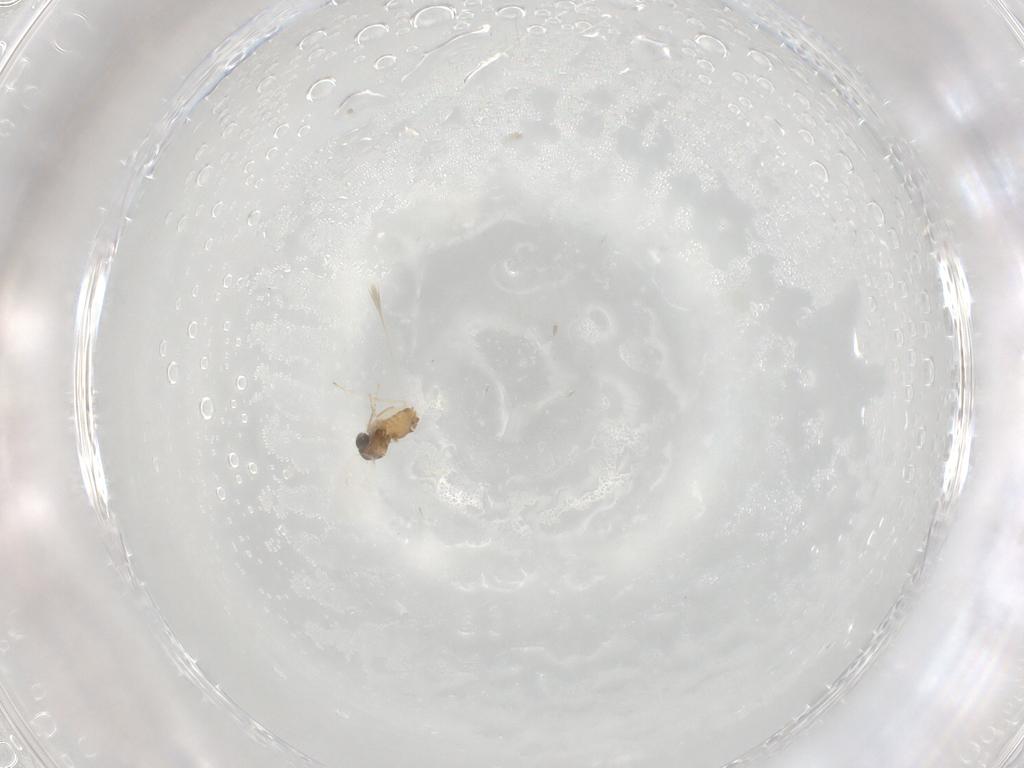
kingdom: Animalia
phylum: Arthropoda
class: Insecta
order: Diptera
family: Cecidomyiidae
